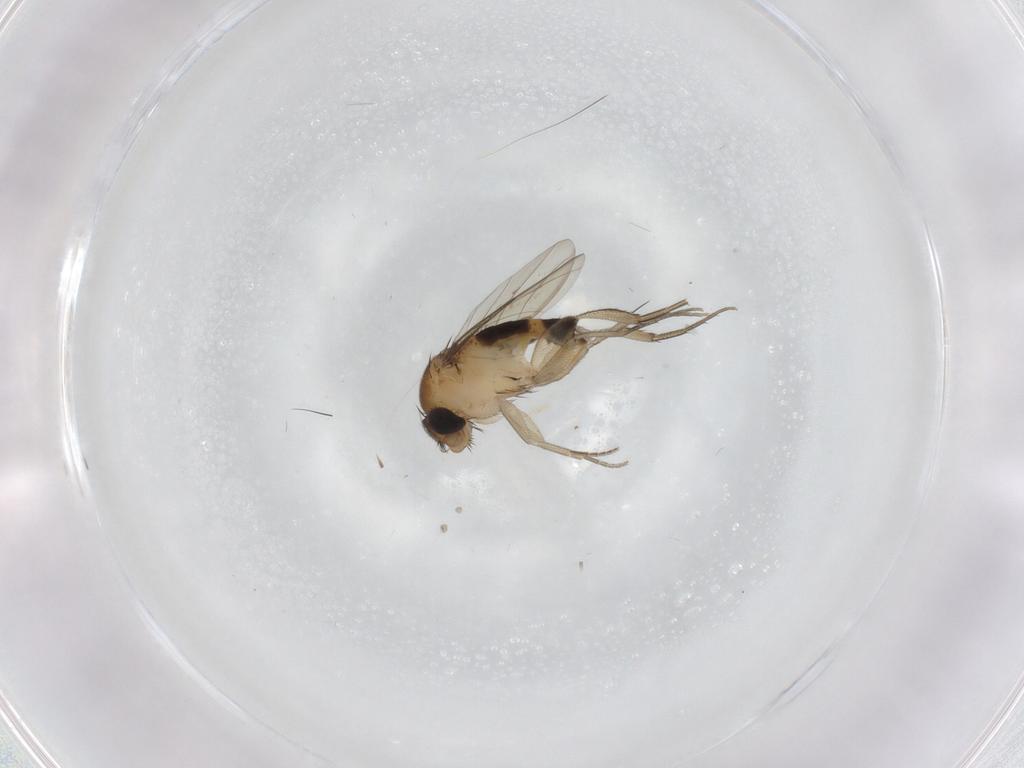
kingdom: Animalia
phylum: Arthropoda
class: Insecta
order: Diptera
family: Phoridae
